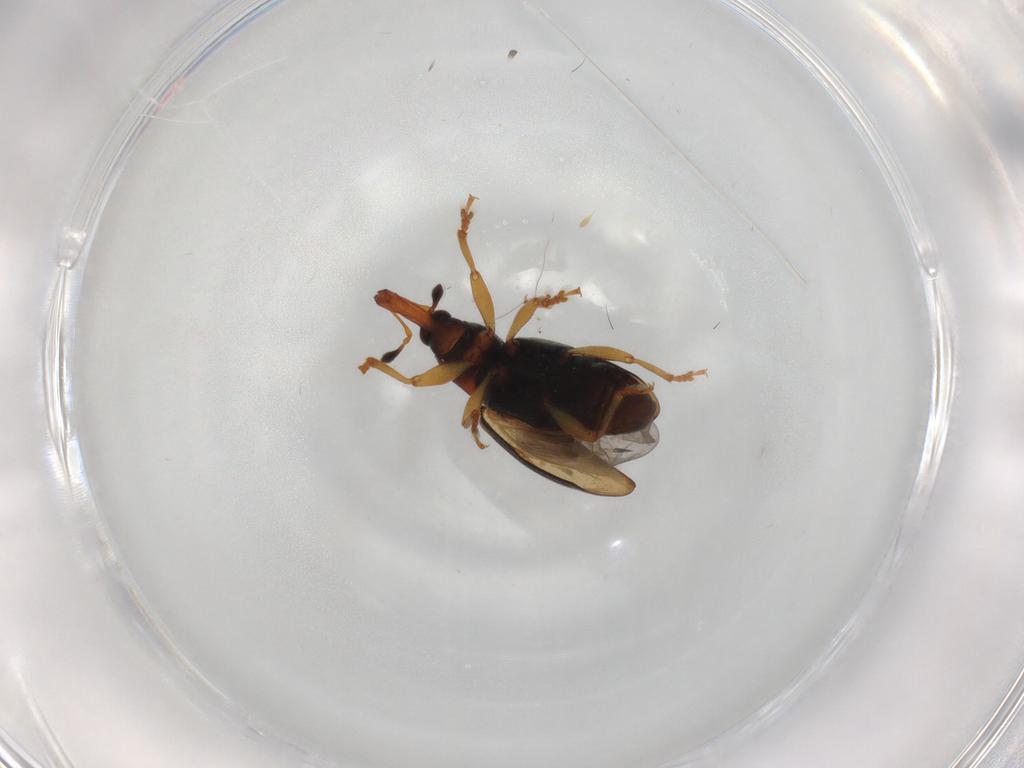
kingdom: Animalia
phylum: Arthropoda
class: Insecta
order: Coleoptera
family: Curculionidae
